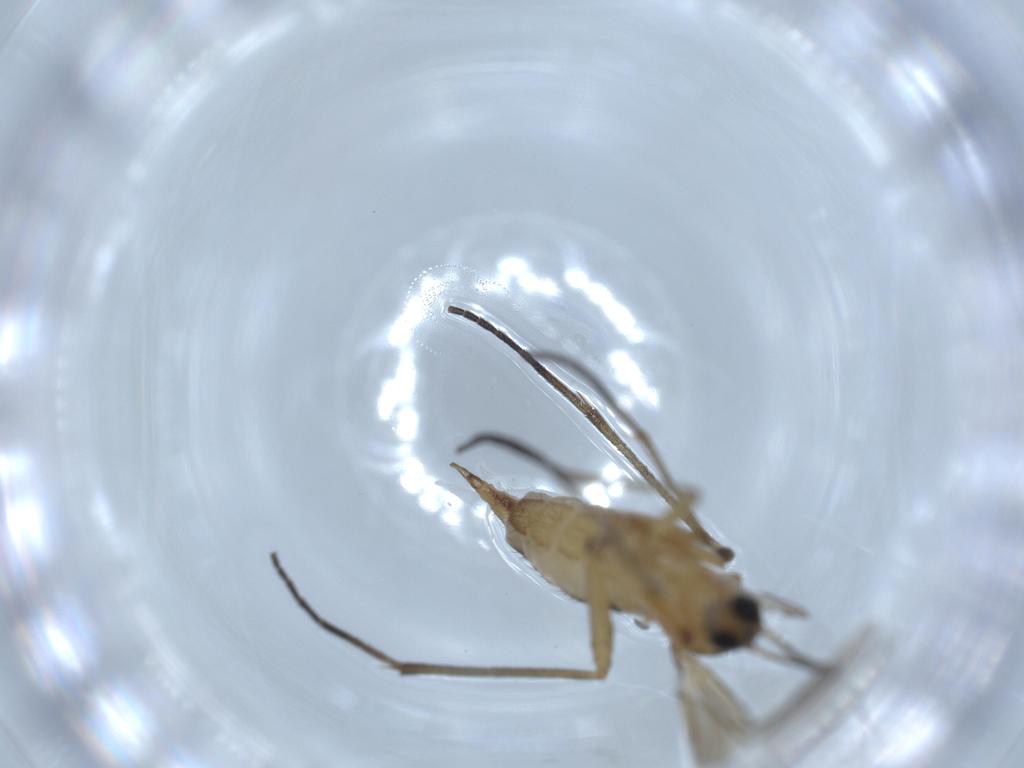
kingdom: Animalia
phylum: Arthropoda
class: Insecta
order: Diptera
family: Sciaridae
